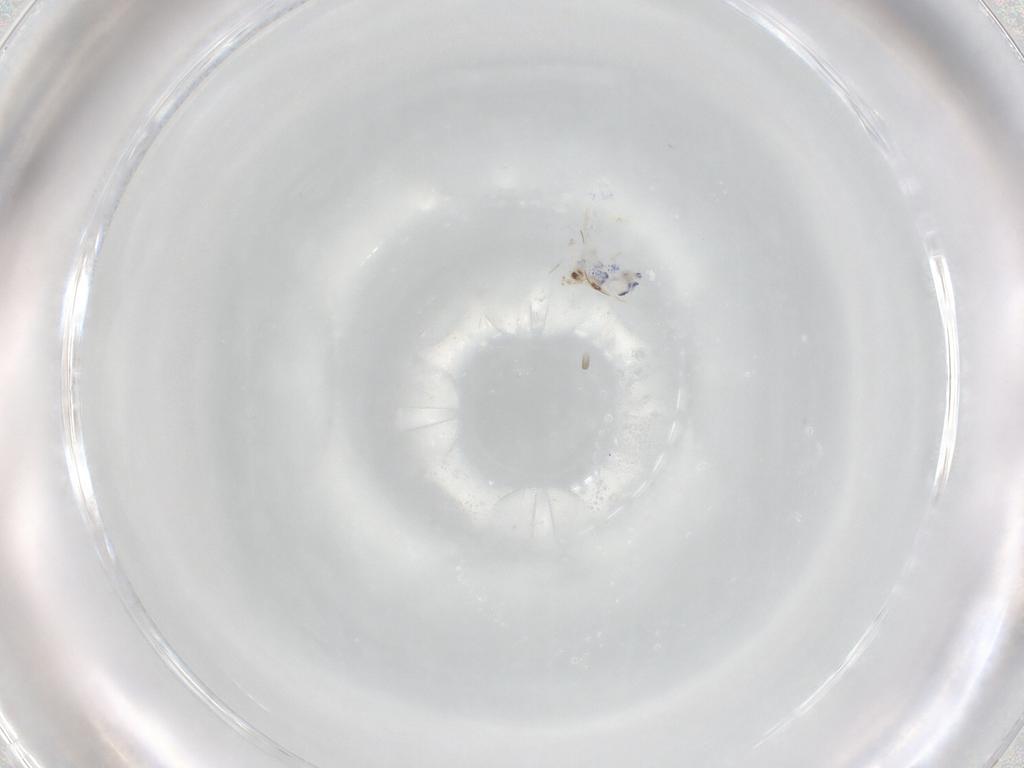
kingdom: Animalia
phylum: Arthropoda
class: Collembola
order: Entomobryomorpha
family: Entomobryidae
